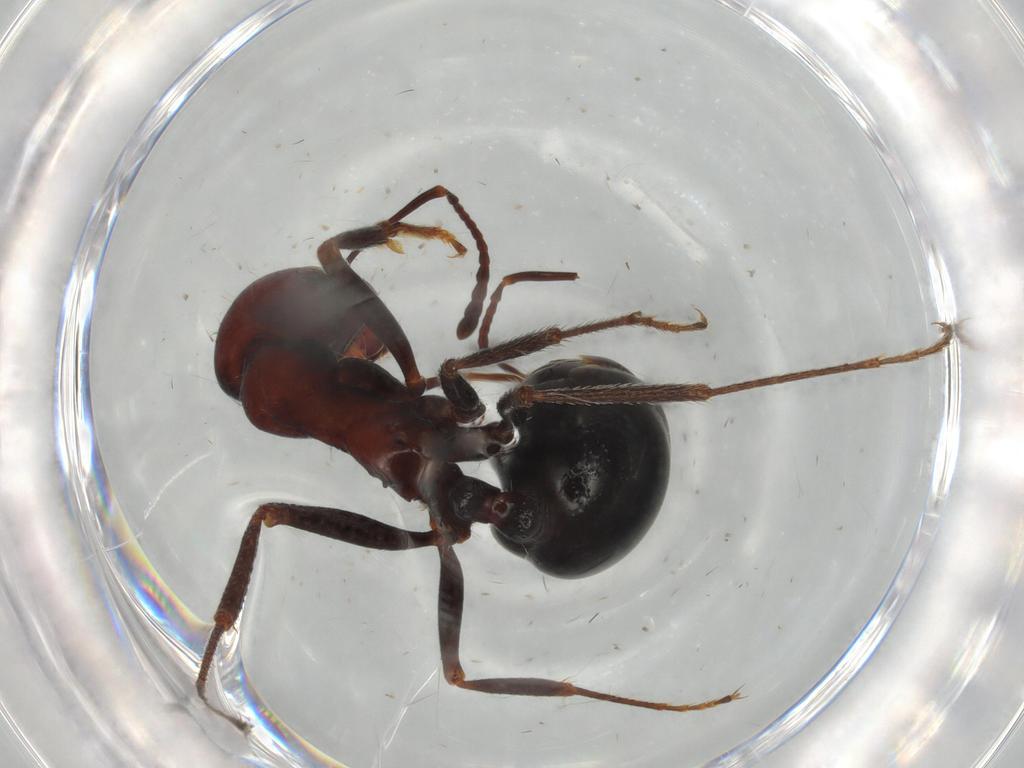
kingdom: Animalia
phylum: Arthropoda
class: Insecta
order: Hymenoptera
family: Formicidae
